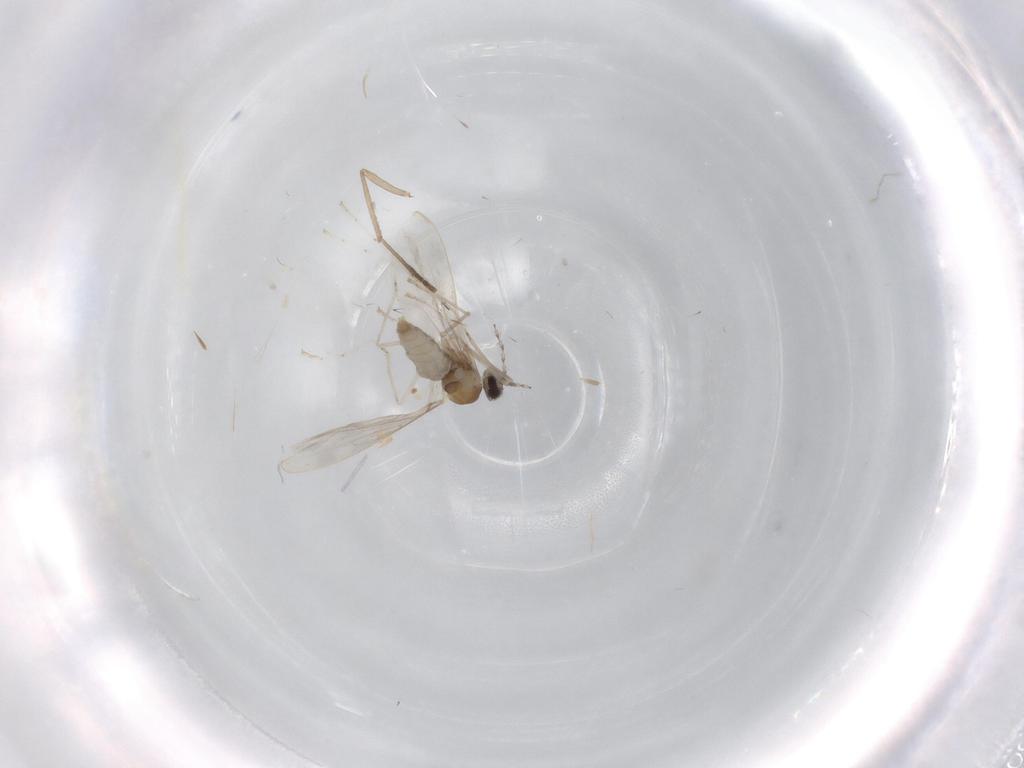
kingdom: Animalia
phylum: Arthropoda
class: Insecta
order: Diptera
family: Cecidomyiidae
